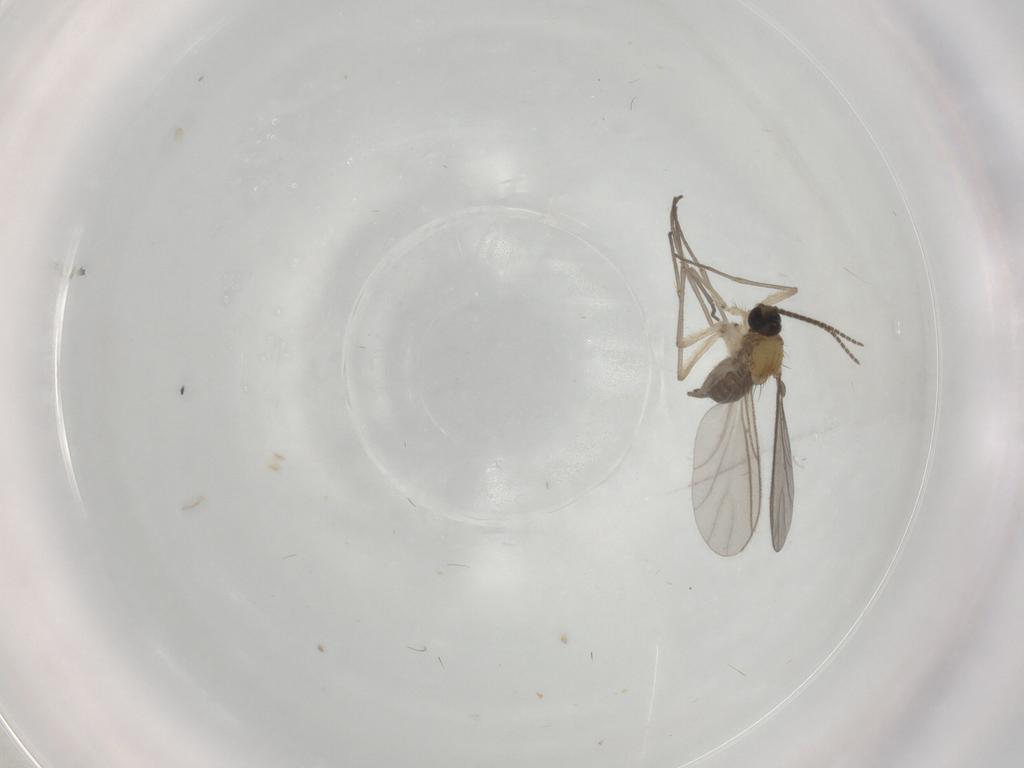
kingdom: Animalia
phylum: Arthropoda
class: Insecta
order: Diptera
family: Sciaridae
